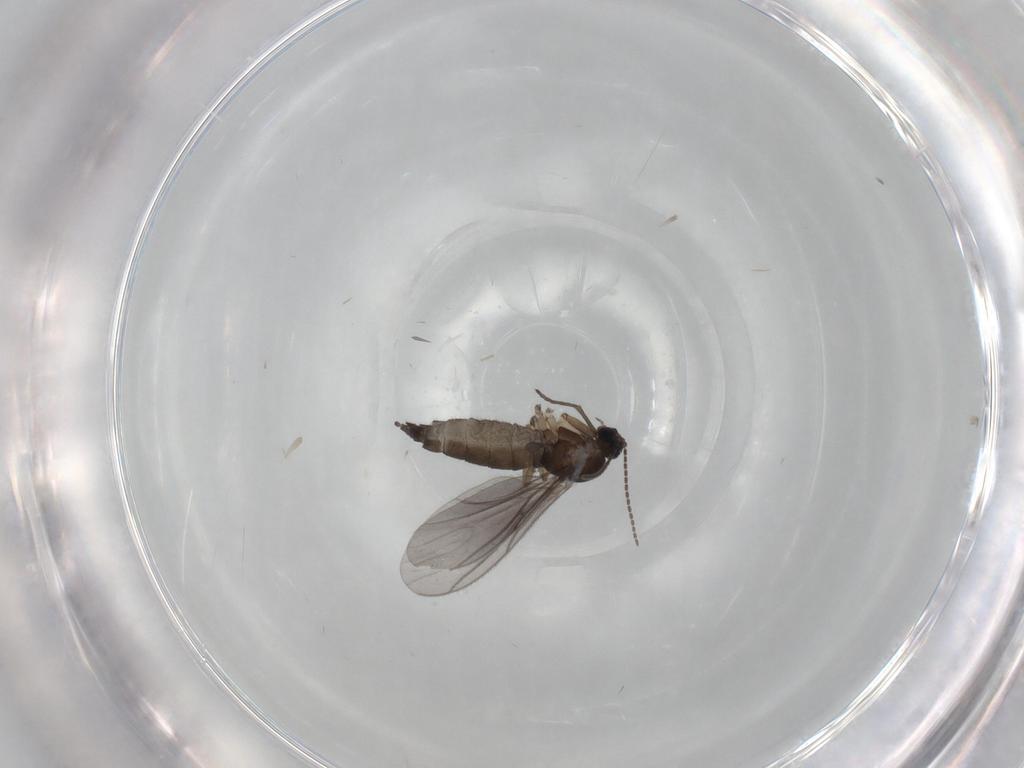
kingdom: Animalia
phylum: Arthropoda
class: Insecta
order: Diptera
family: Sciaridae
